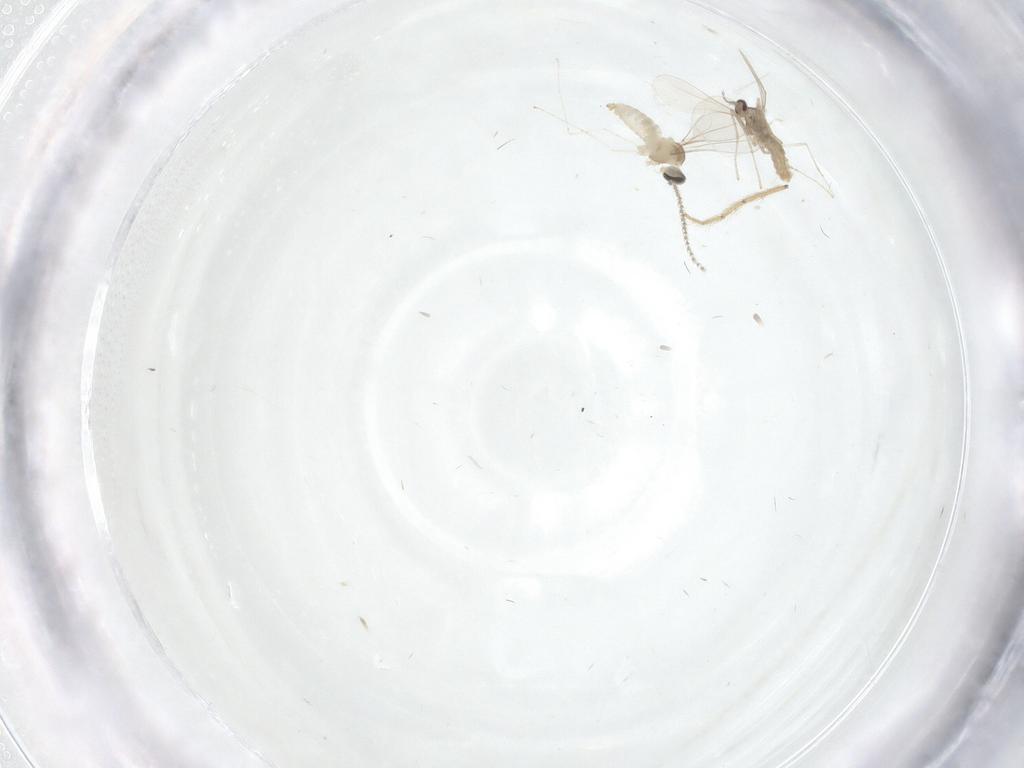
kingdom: Animalia
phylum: Arthropoda
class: Insecta
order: Diptera
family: Cecidomyiidae
